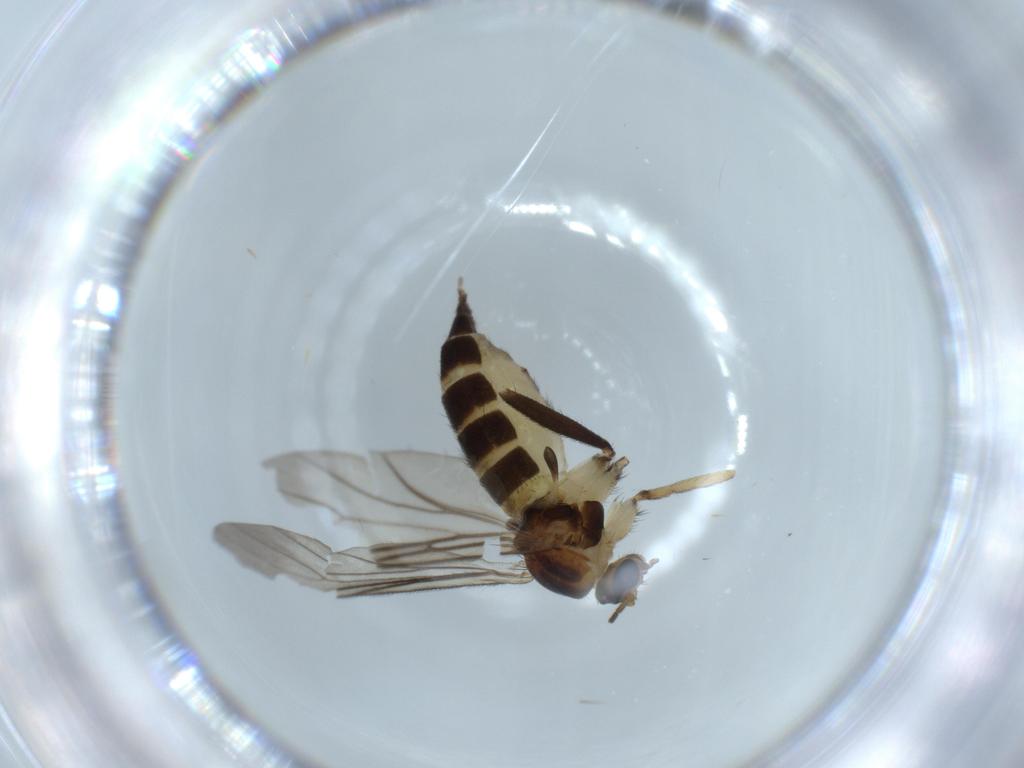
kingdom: Animalia
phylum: Arthropoda
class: Insecta
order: Diptera
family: Sciaridae
